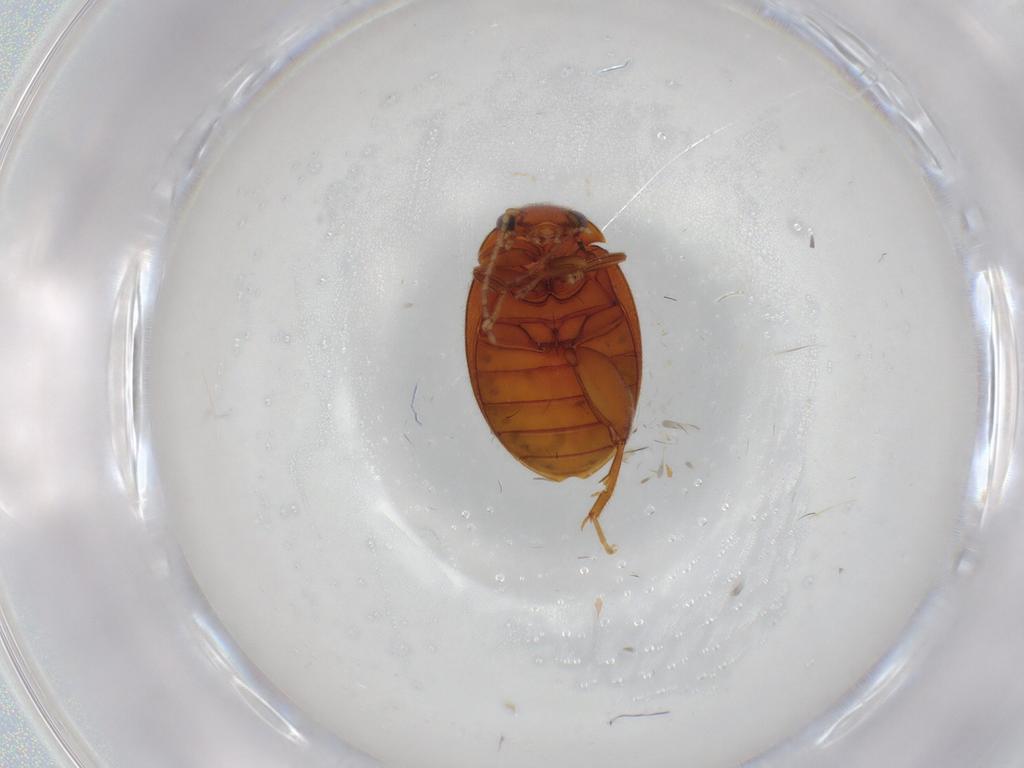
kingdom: Animalia
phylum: Arthropoda
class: Insecta
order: Coleoptera
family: Scirtidae
